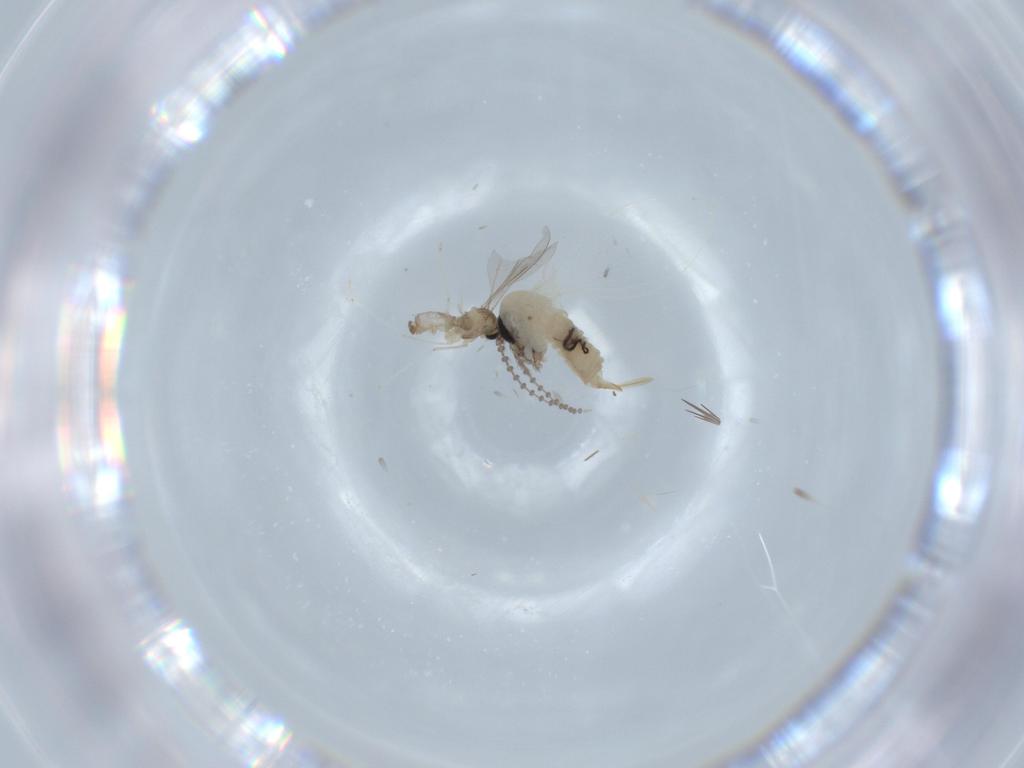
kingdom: Animalia
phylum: Arthropoda
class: Insecta
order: Diptera
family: Sciaridae
